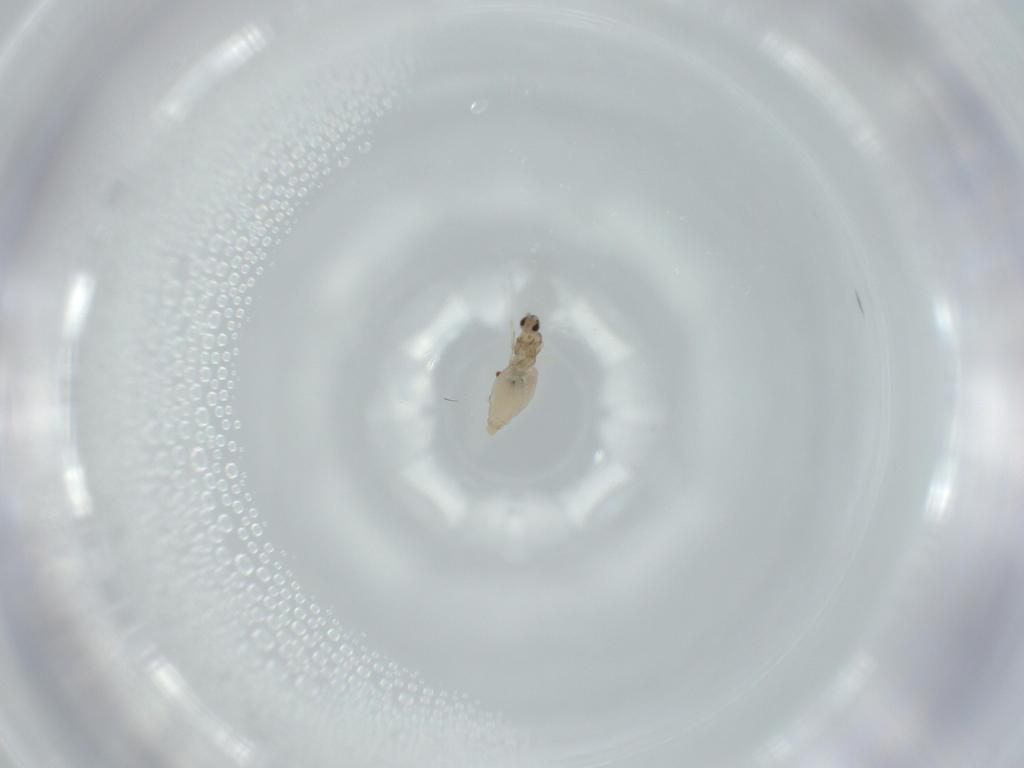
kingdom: Animalia
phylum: Arthropoda
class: Insecta
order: Diptera
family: Cecidomyiidae
